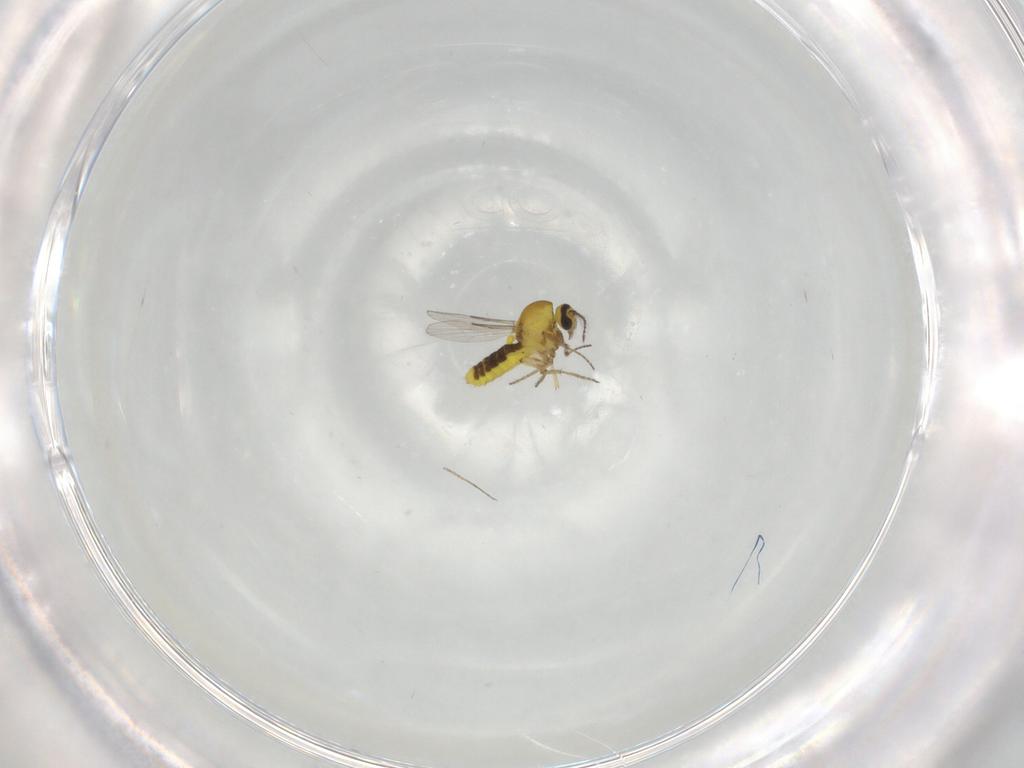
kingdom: Animalia
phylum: Arthropoda
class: Insecta
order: Diptera
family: Ceratopogonidae
